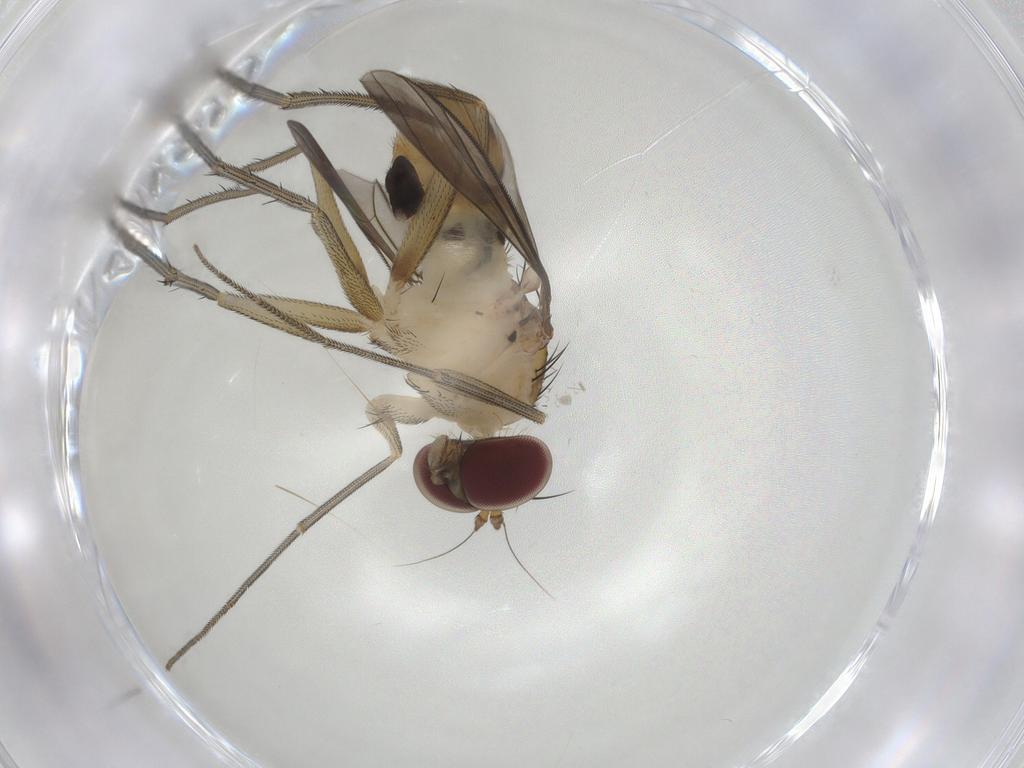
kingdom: Animalia
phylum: Arthropoda
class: Insecta
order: Diptera
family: Dolichopodidae
